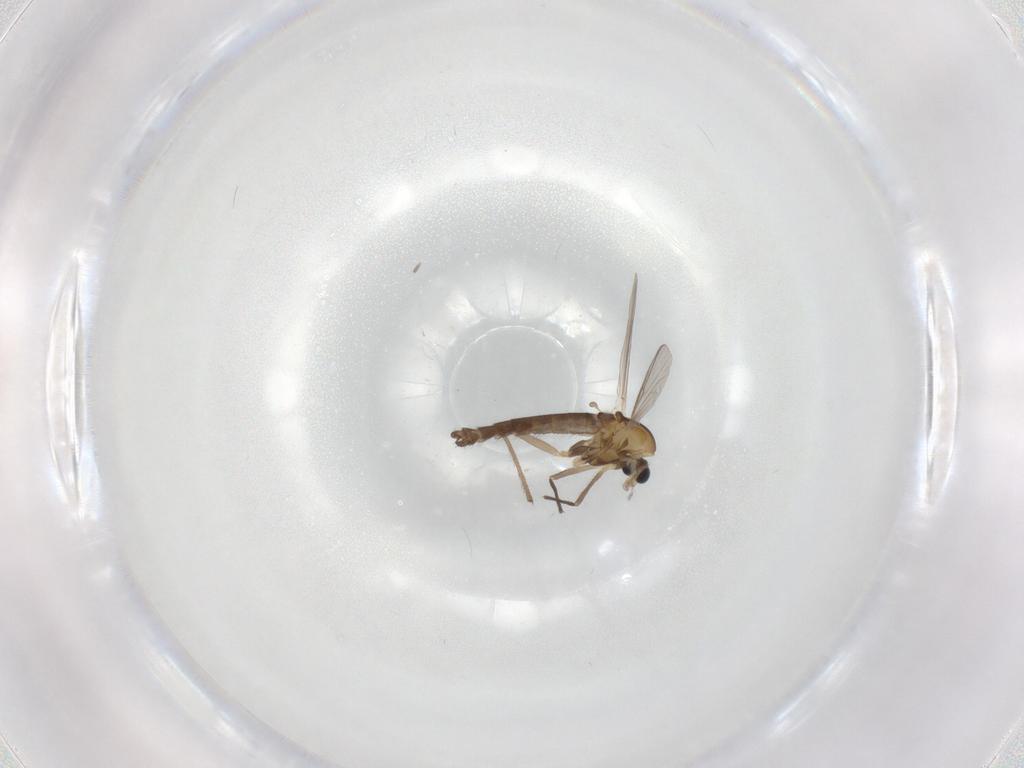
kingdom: Animalia
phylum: Arthropoda
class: Insecta
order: Diptera
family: Chironomidae
